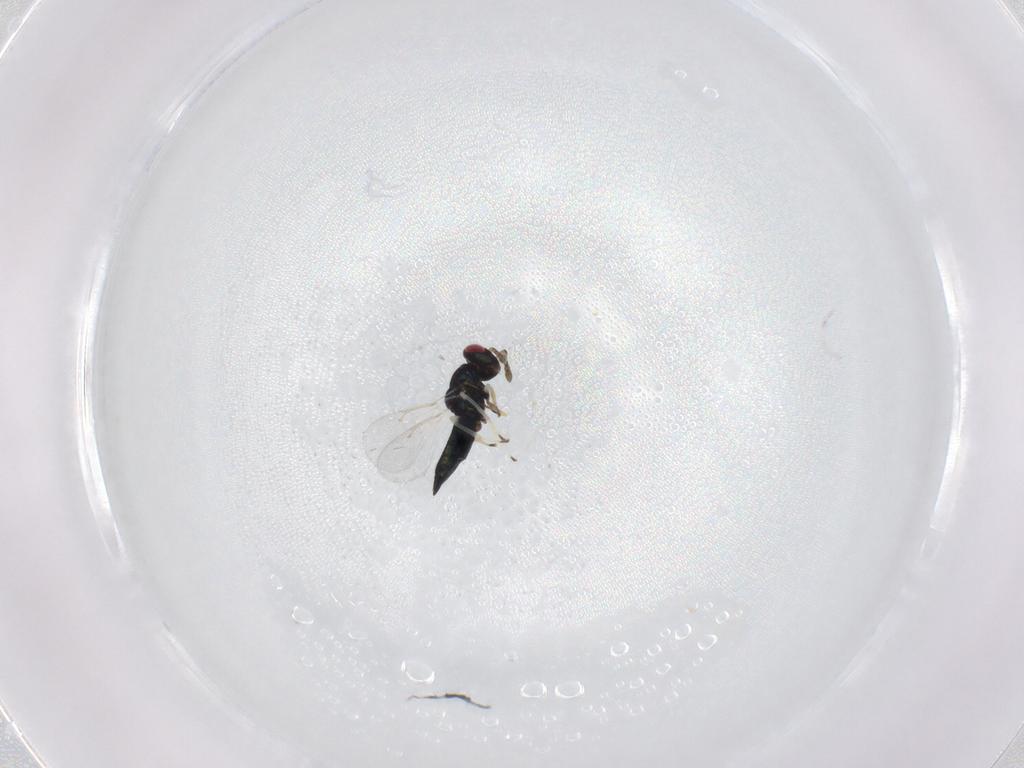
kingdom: Animalia
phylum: Arthropoda
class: Insecta
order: Hymenoptera
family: Eulophidae
